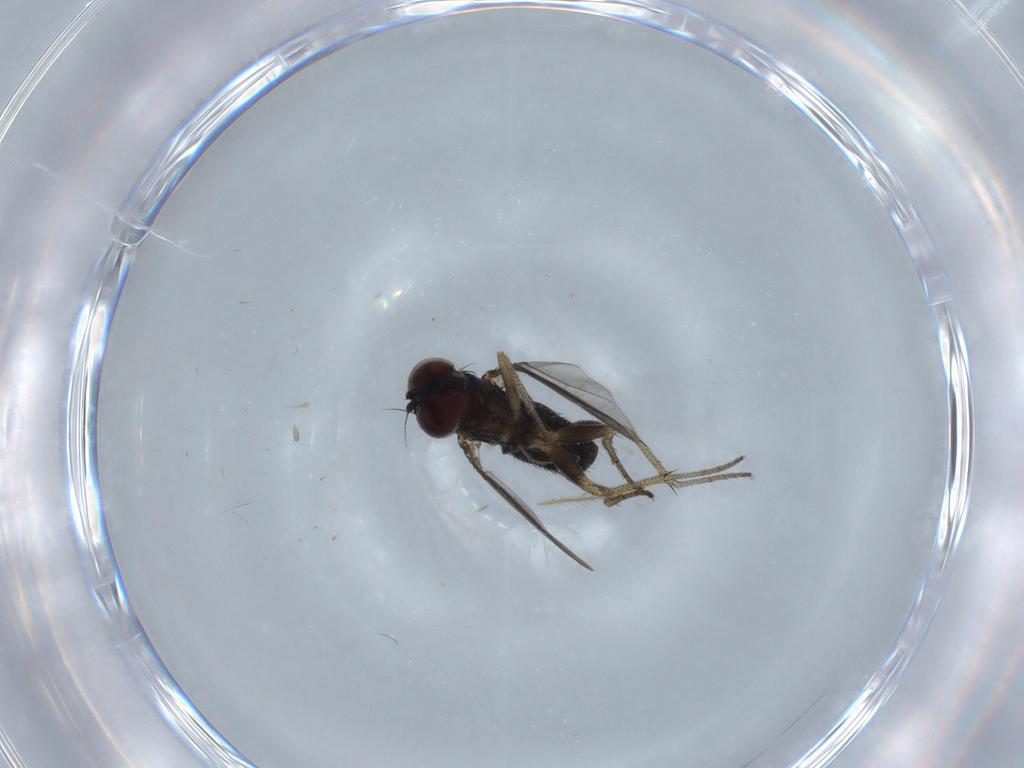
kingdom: Animalia
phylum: Arthropoda
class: Insecta
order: Diptera
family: Dolichopodidae
